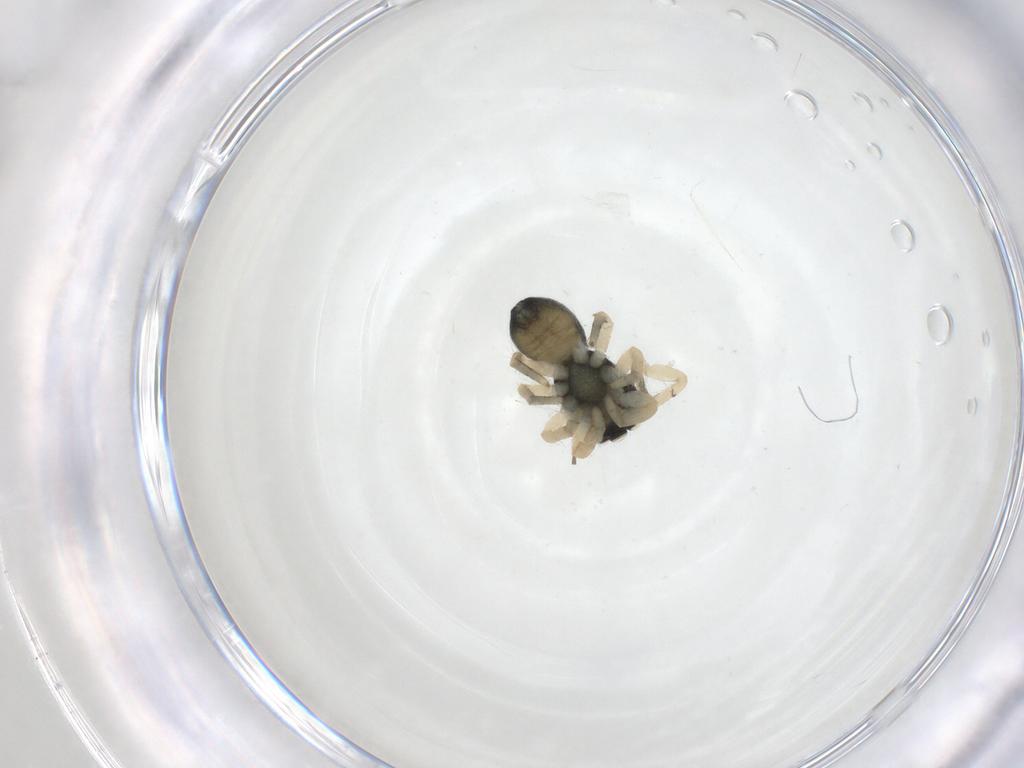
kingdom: Animalia
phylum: Arthropoda
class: Arachnida
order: Araneae
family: Salticidae
